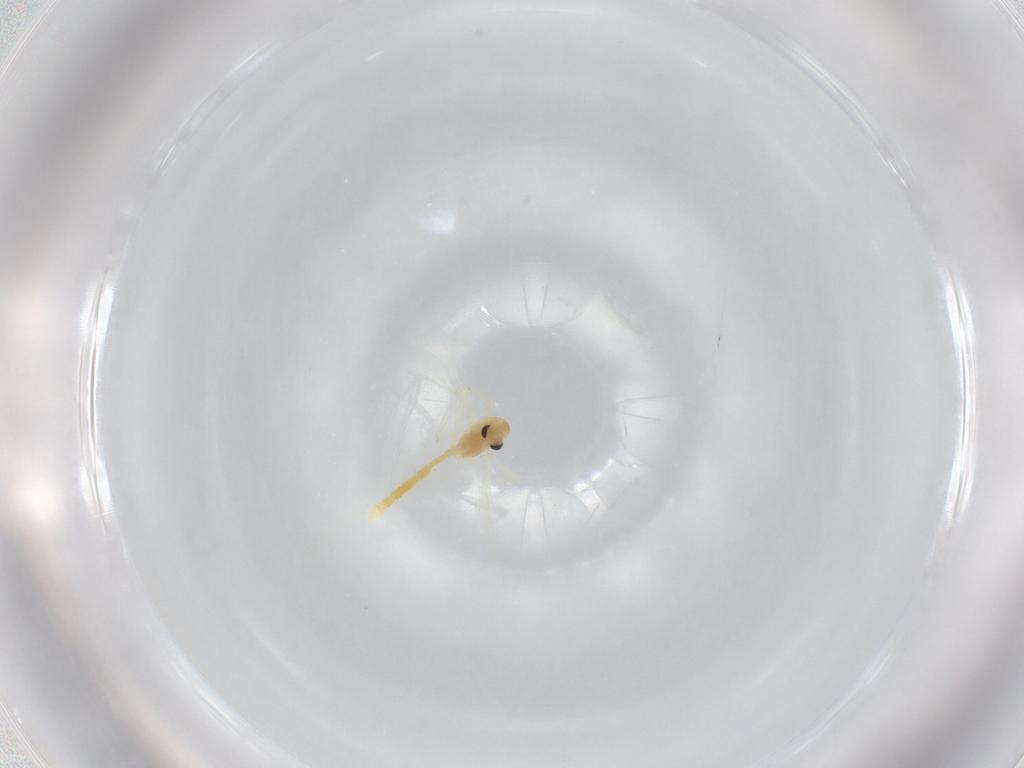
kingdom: Animalia
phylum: Arthropoda
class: Insecta
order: Diptera
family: Chironomidae
